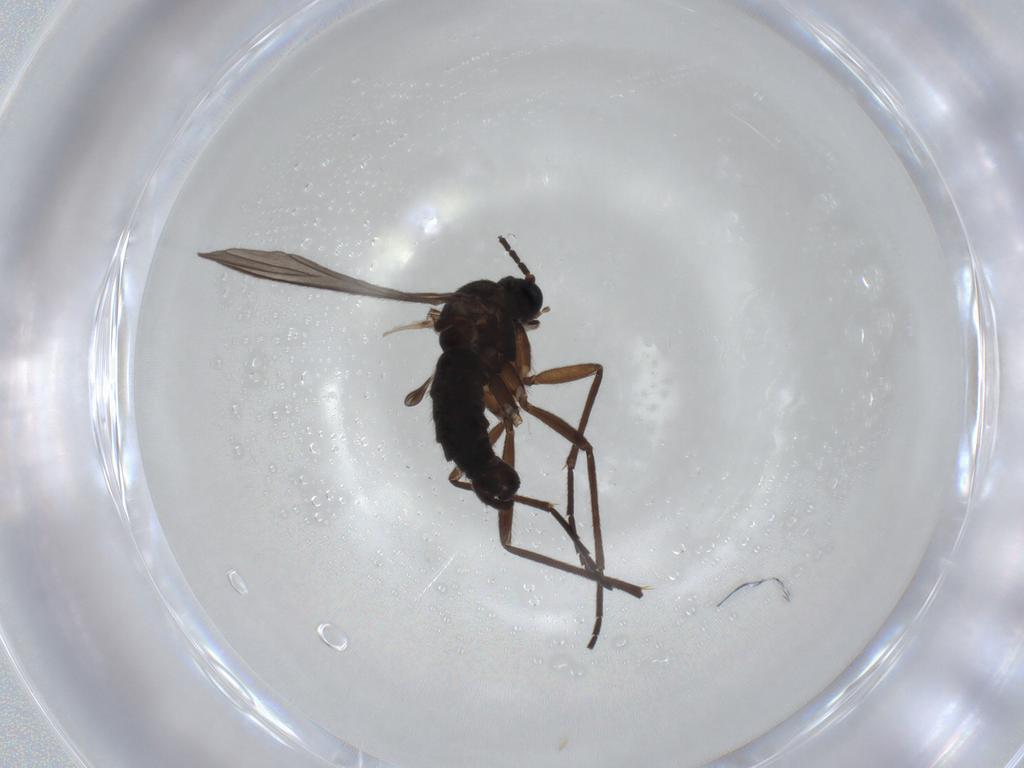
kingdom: Animalia
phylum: Arthropoda
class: Insecta
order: Diptera
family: Sciaridae
